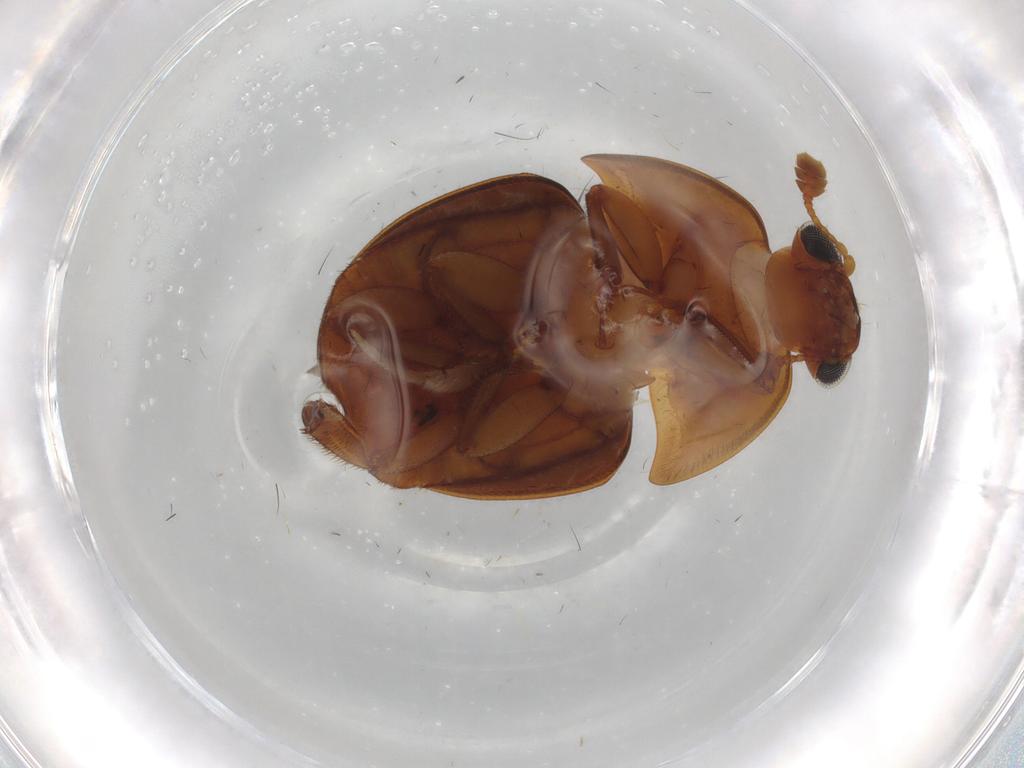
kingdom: Animalia
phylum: Arthropoda
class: Insecta
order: Coleoptera
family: Nitidulidae
